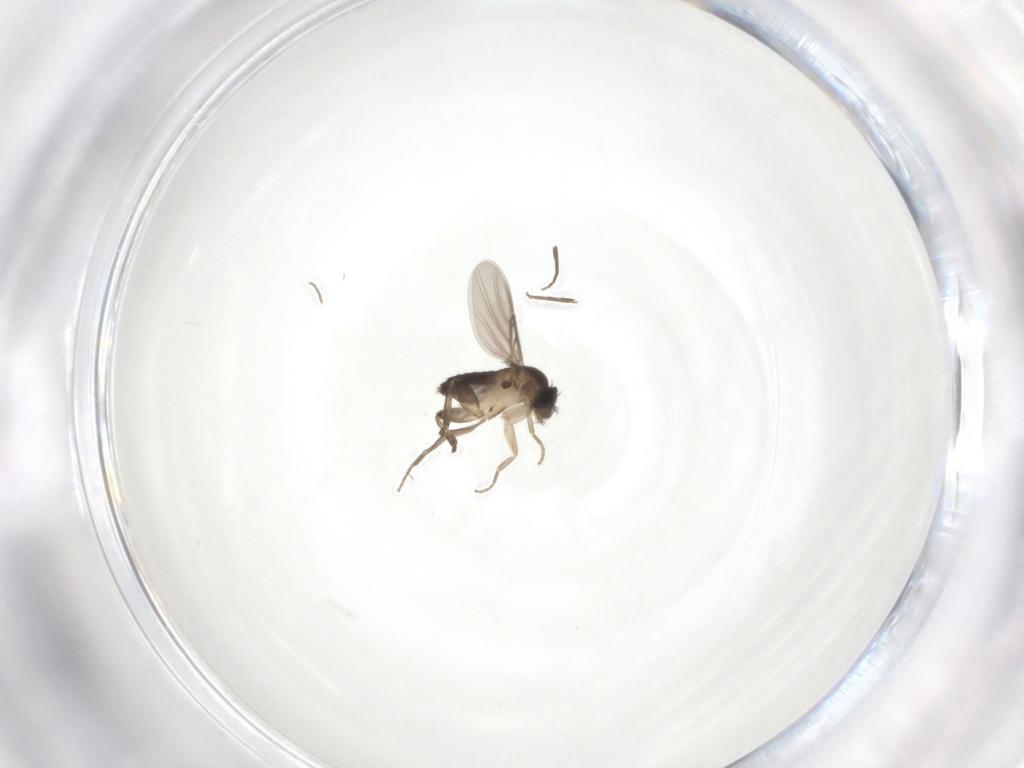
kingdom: Animalia
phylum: Arthropoda
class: Insecta
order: Diptera
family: Phoridae
